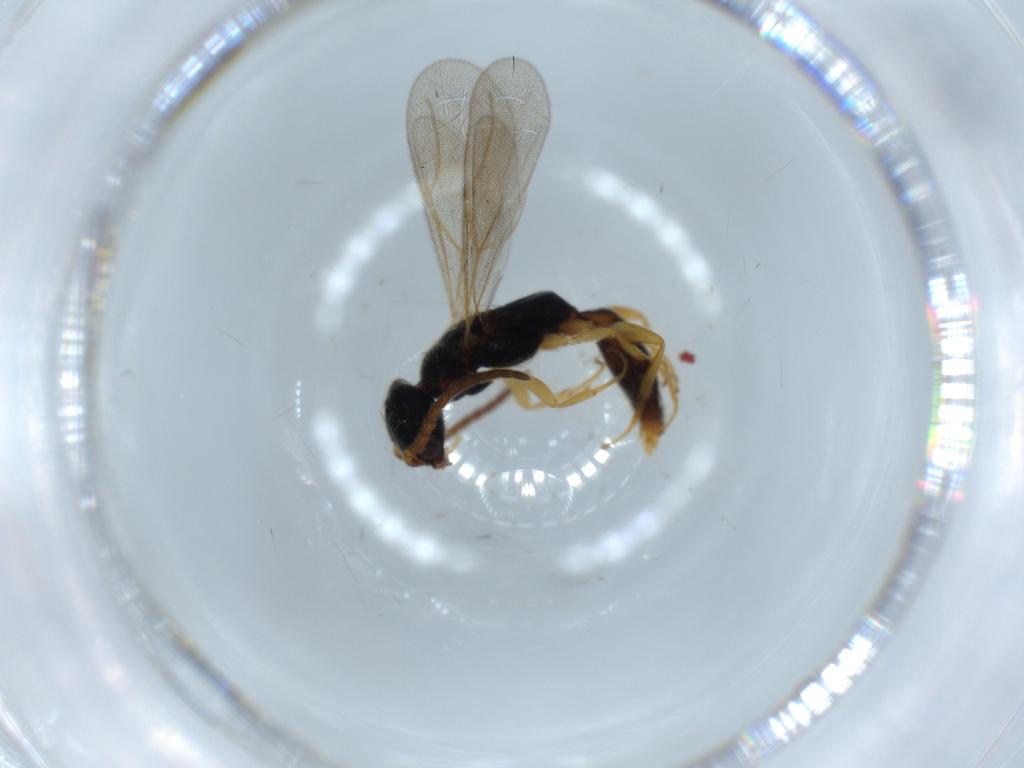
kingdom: Animalia
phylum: Arthropoda
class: Insecta
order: Hymenoptera
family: Bethylidae
